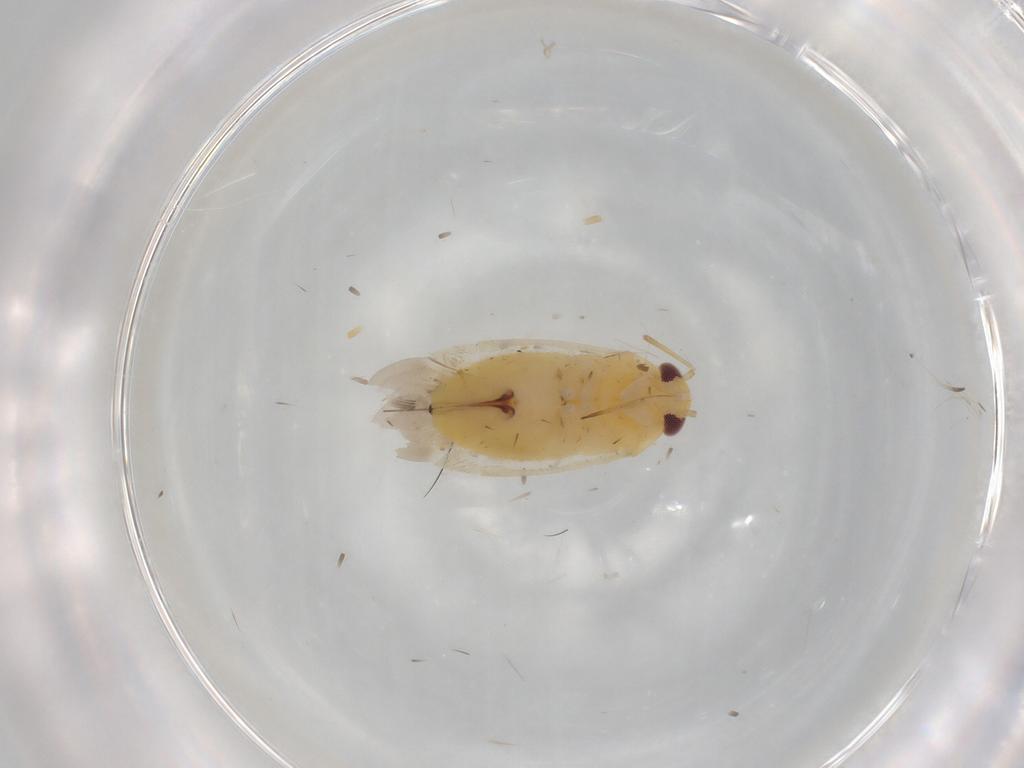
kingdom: Animalia
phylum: Arthropoda
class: Insecta
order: Hemiptera
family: Miridae
